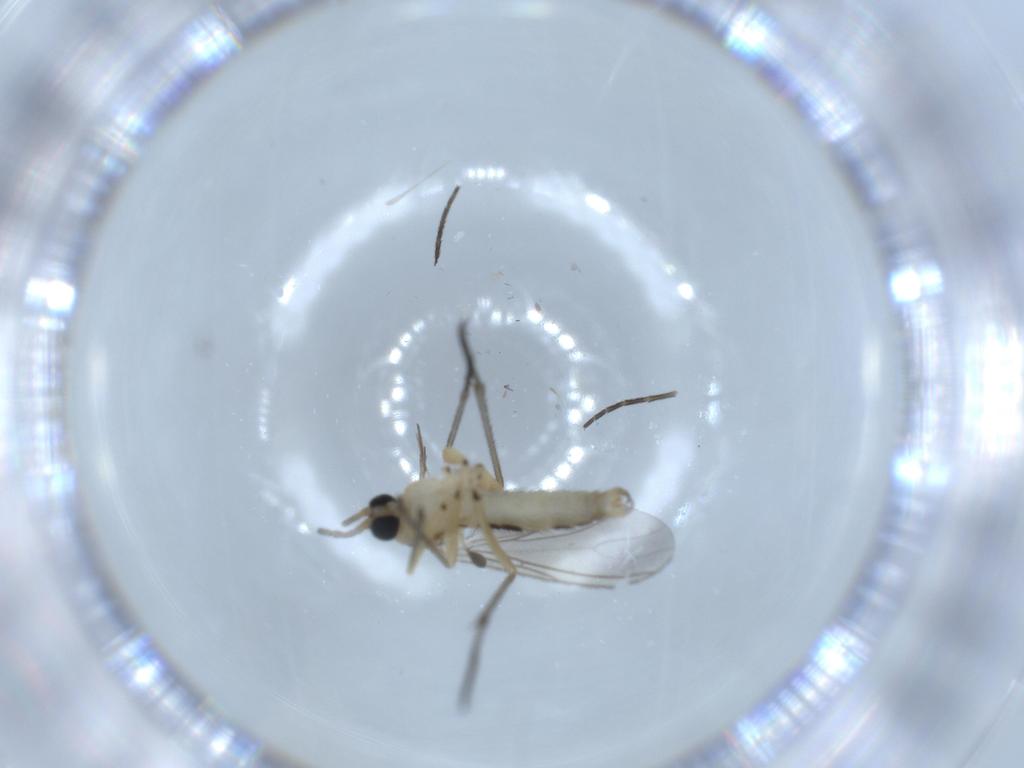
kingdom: Animalia
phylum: Arthropoda
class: Insecta
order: Diptera
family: Sciaridae
